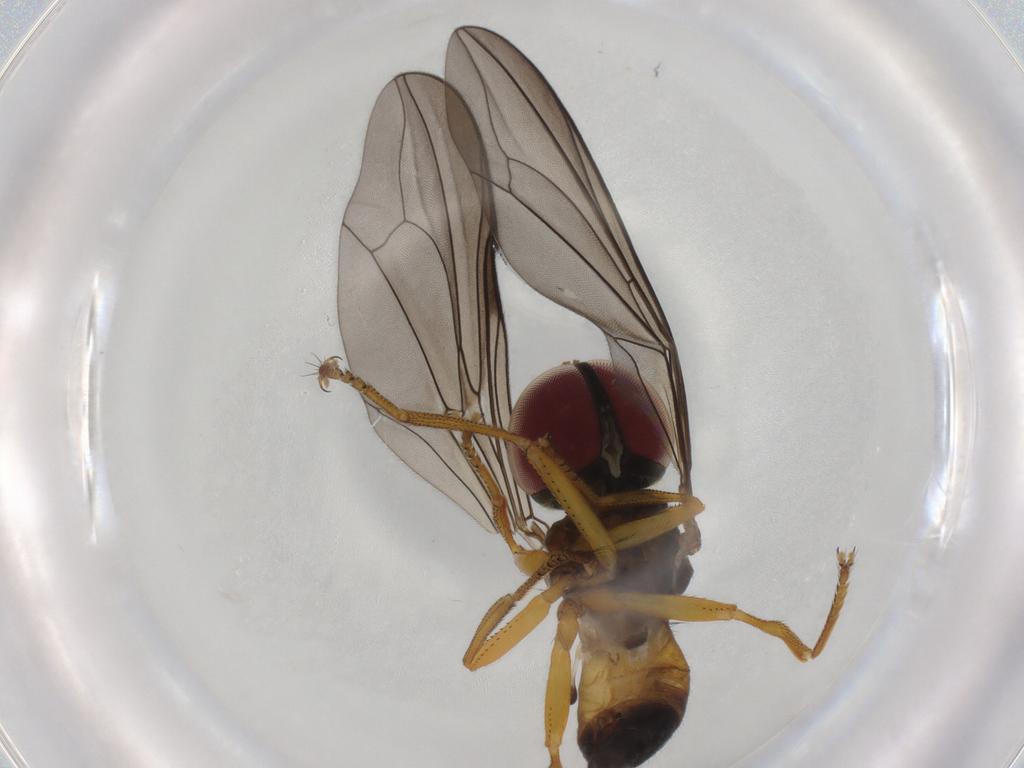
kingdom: Animalia
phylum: Arthropoda
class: Insecta
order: Diptera
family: Pipunculidae
